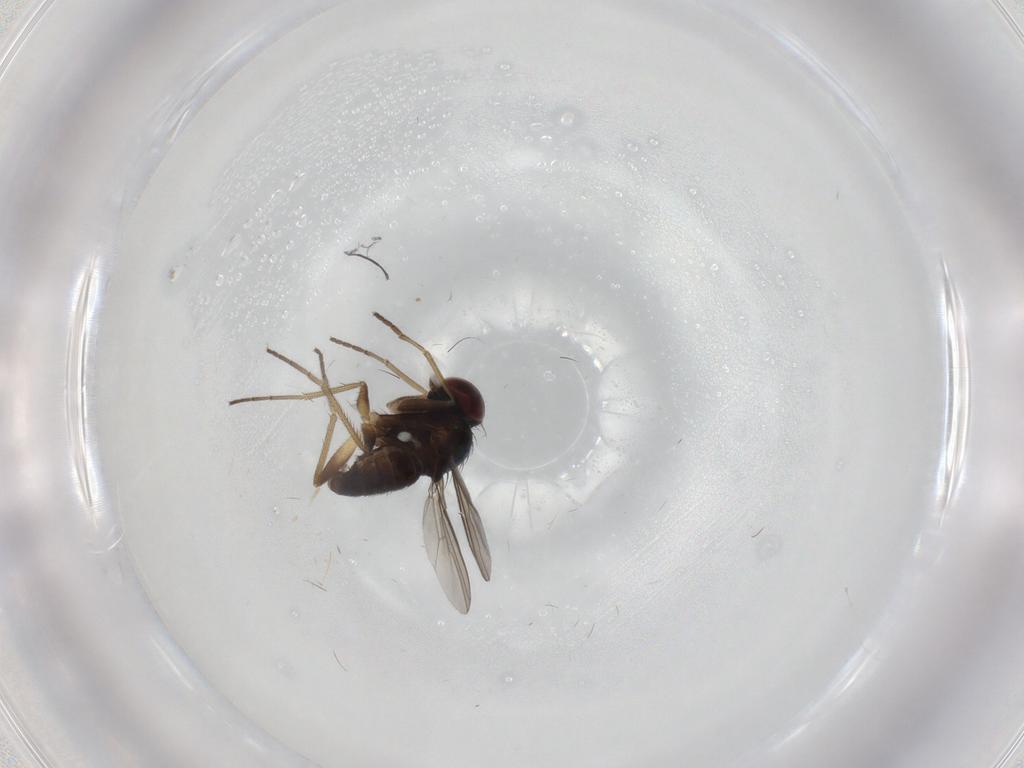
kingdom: Animalia
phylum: Arthropoda
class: Insecta
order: Diptera
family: Dolichopodidae
